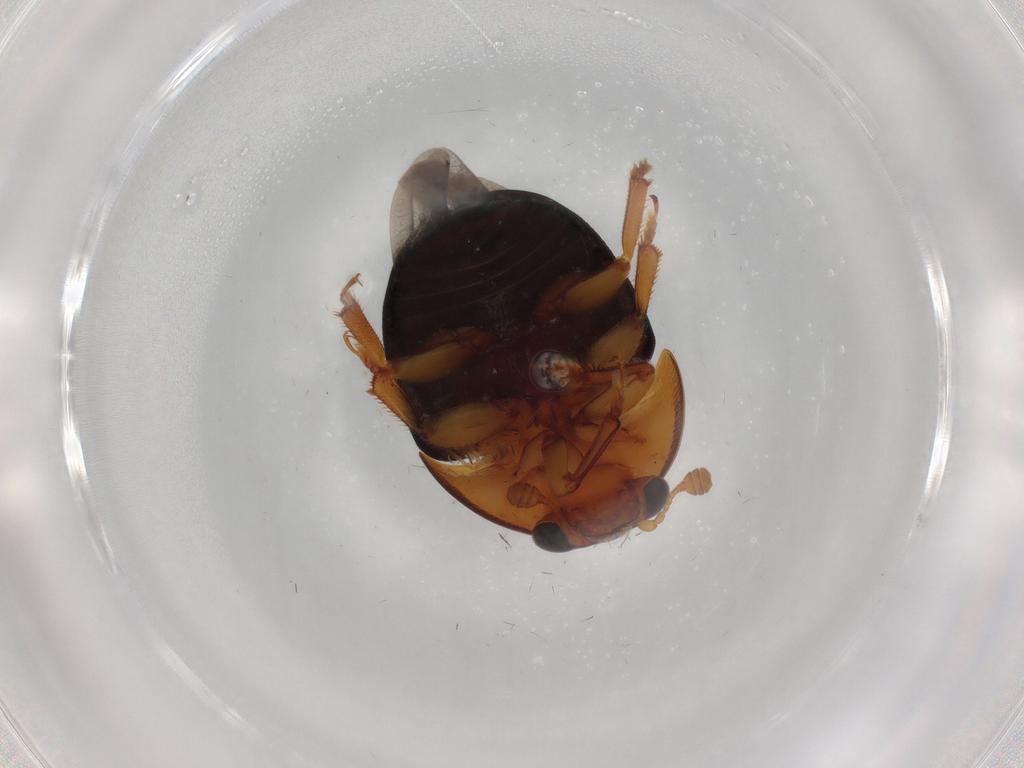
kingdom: Animalia
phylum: Arthropoda
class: Insecta
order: Coleoptera
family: Nitidulidae
